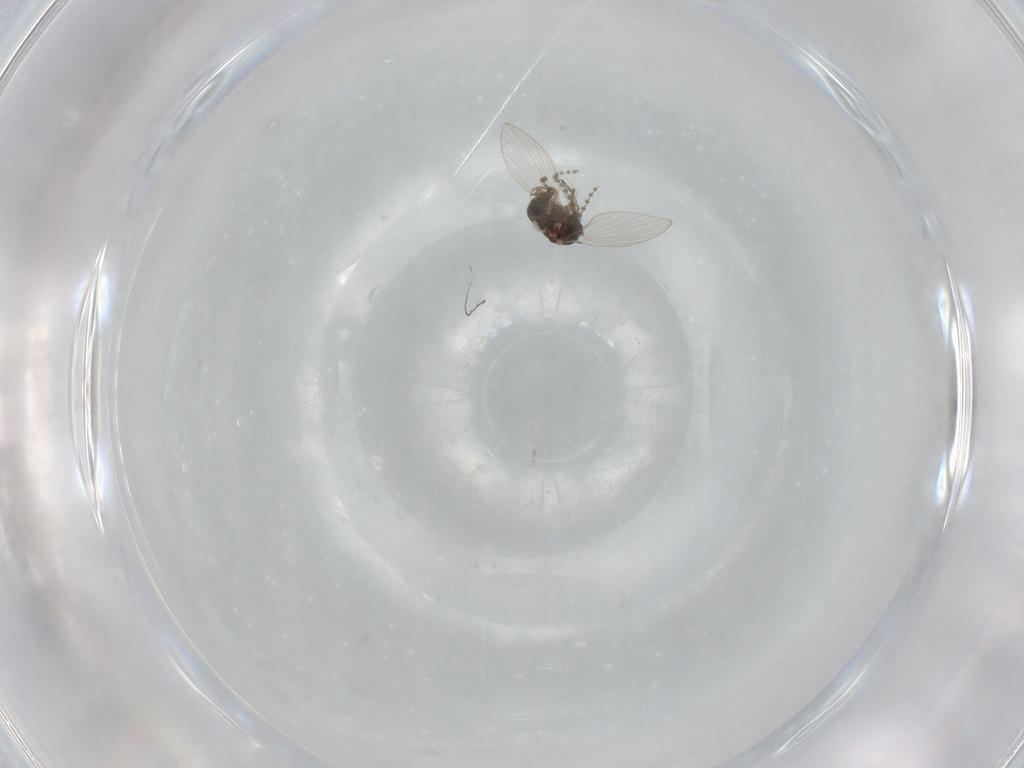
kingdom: Animalia
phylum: Arthropoda
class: Insecta
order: Diptera
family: Psychodidae
